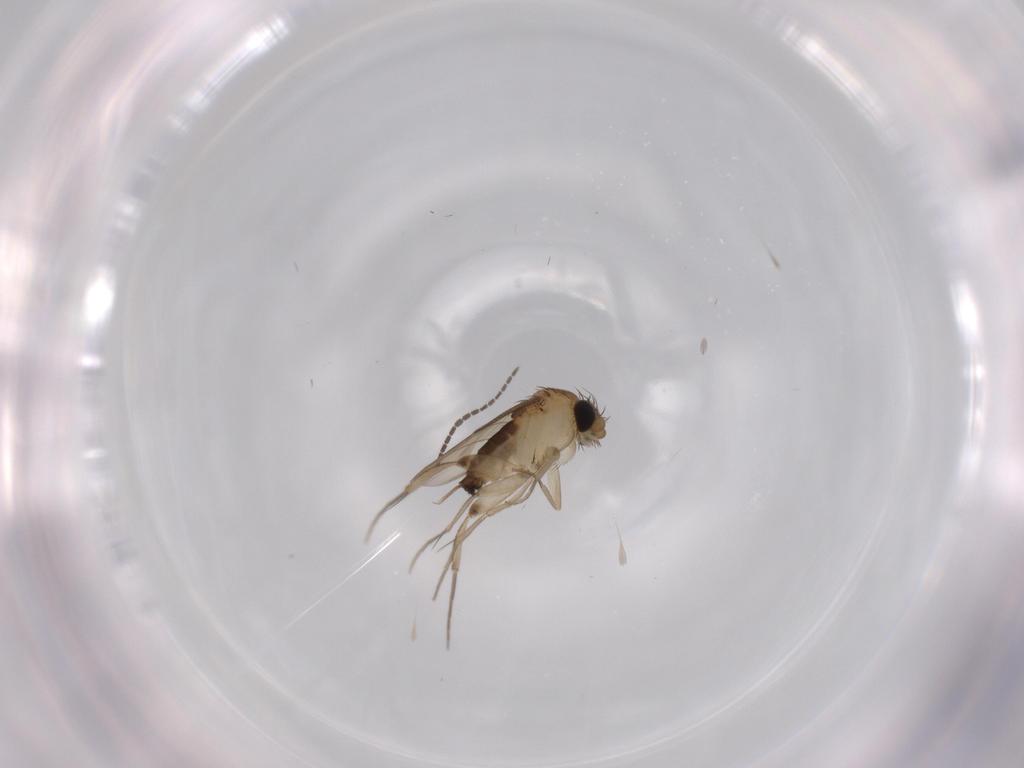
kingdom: Animalia
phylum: Arthropoda
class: Insecta
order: Diptera
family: Phoridae
